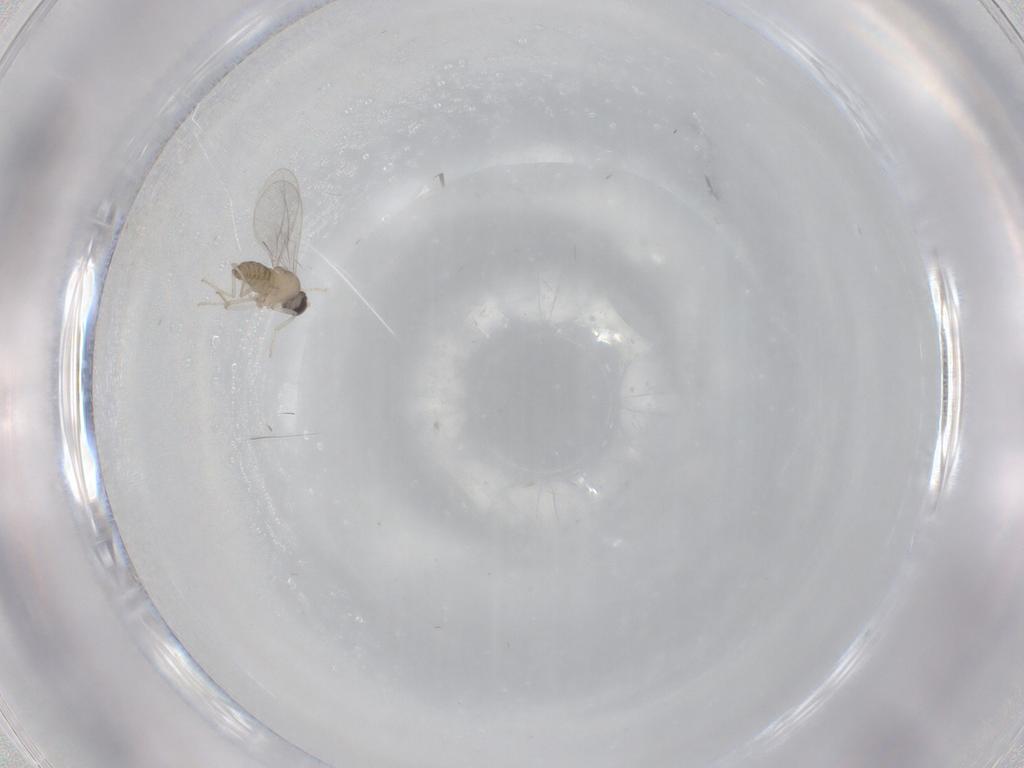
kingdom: Animalia
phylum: Arthropoda
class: Insecta
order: Diptera
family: Cecidomyiidae
